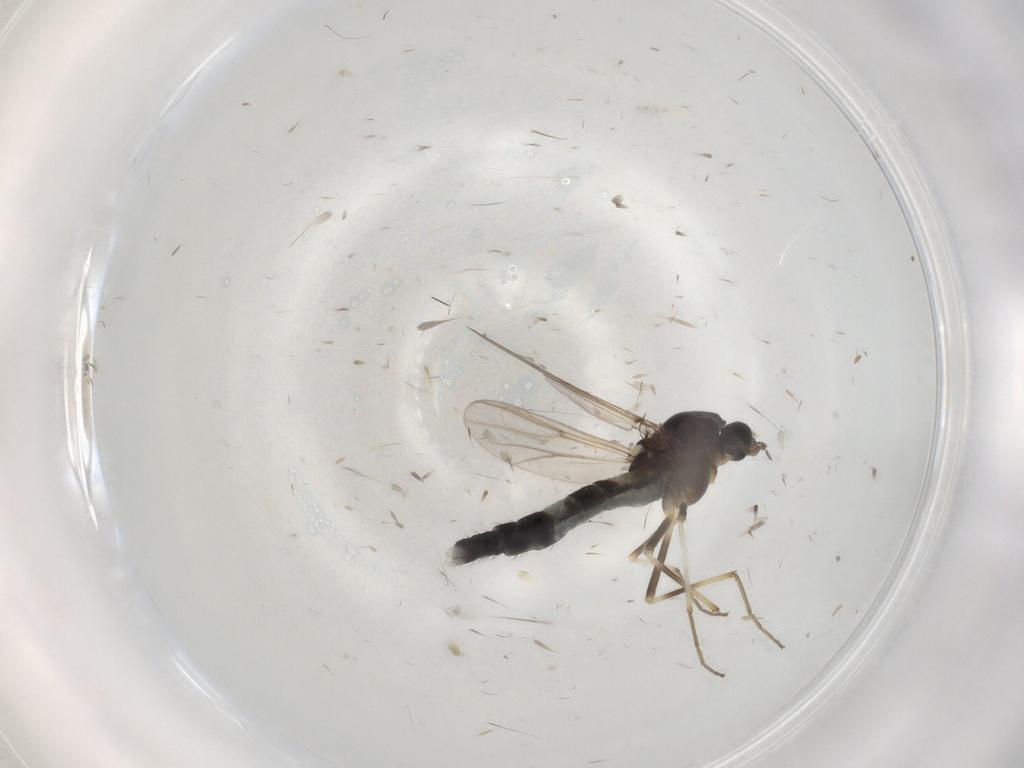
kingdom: Animalia
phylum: Arthropoda
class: Insecta
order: Diptera
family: Chironomidae
